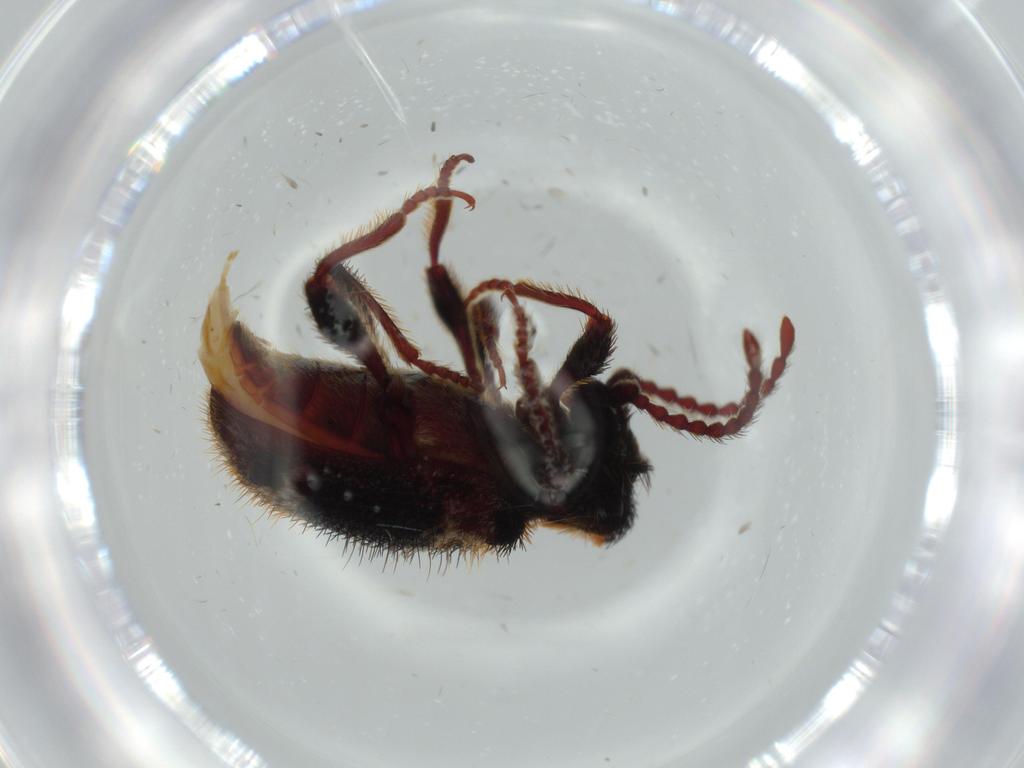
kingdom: Animalia
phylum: Arthropoda
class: Insecta
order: Coleoptera
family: Chrysomelidae
